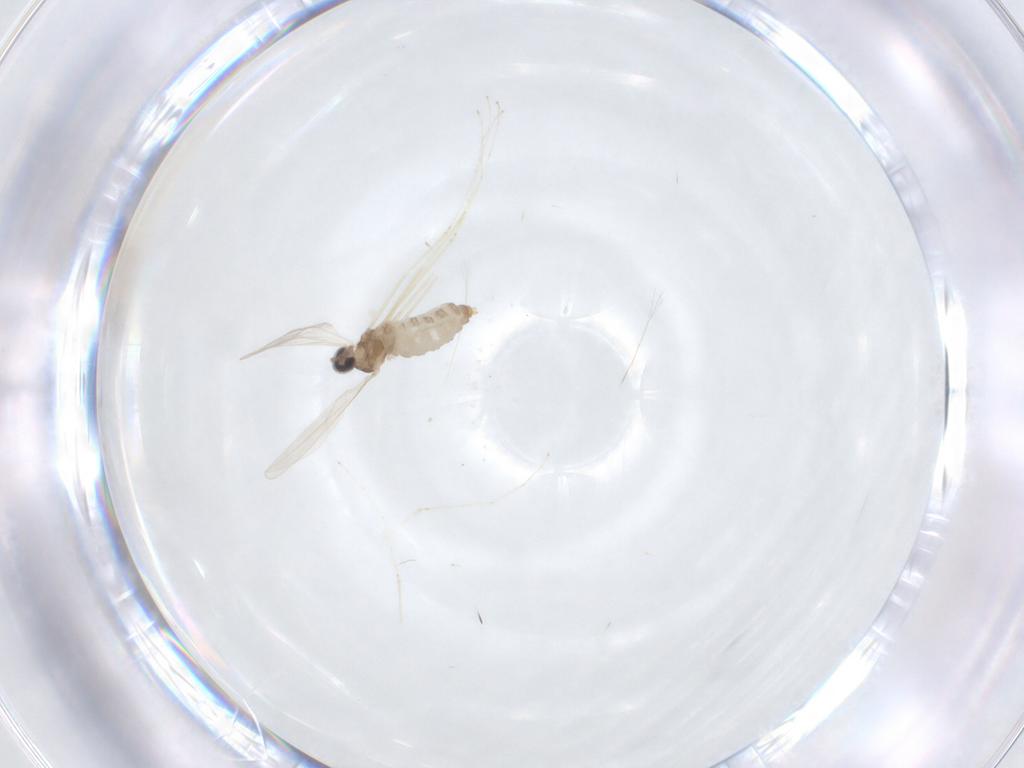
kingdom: Animalia
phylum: Arthropoda
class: Insecta
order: Diptera
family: Cecidomyiidae
